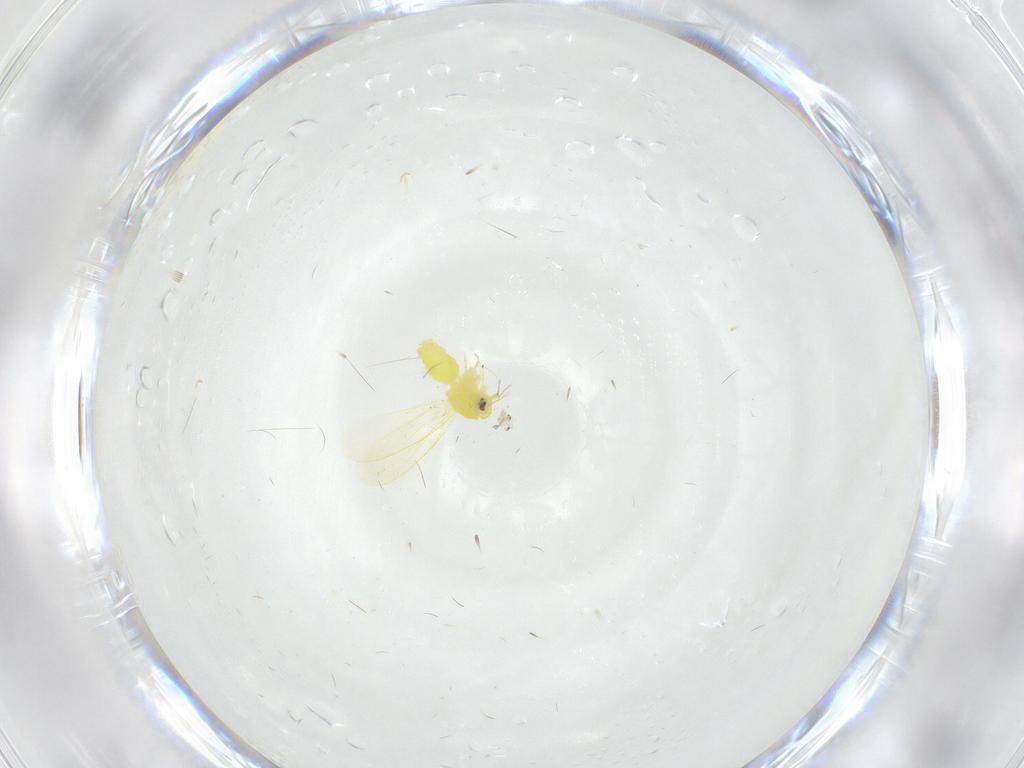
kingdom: Animalia
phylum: Arthropoda
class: Insecta
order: Hemiptera
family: Aleyrodidae
